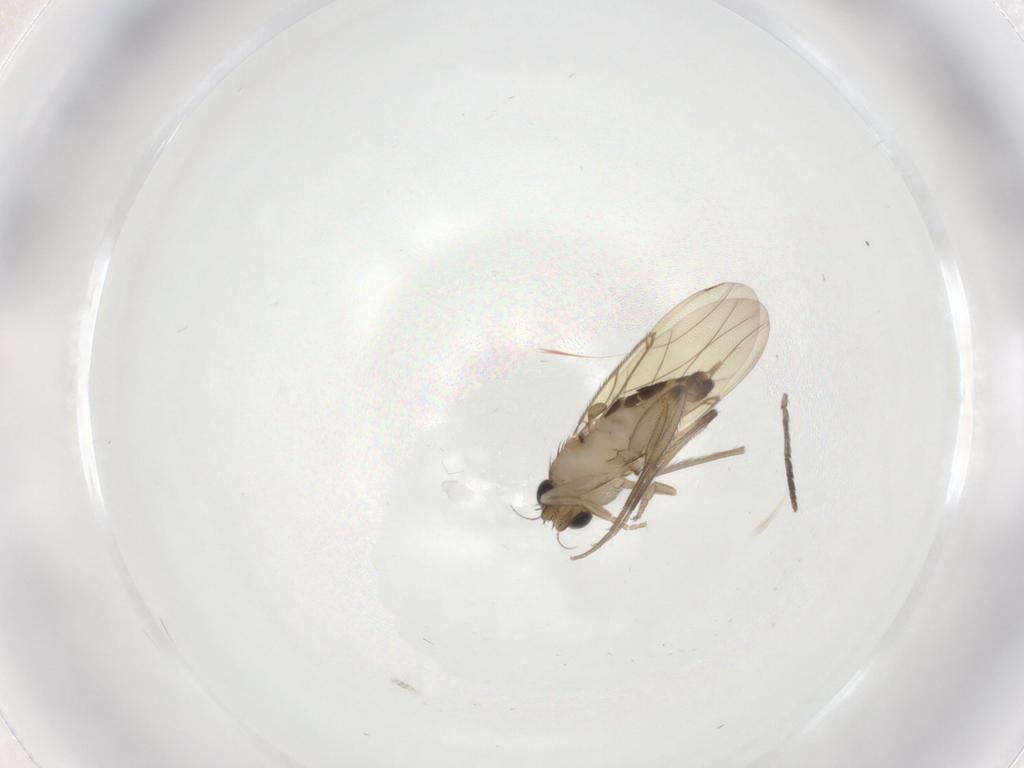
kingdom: Animalia
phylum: Arthropoda
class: Insecta
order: Diptera
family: Phoridae
